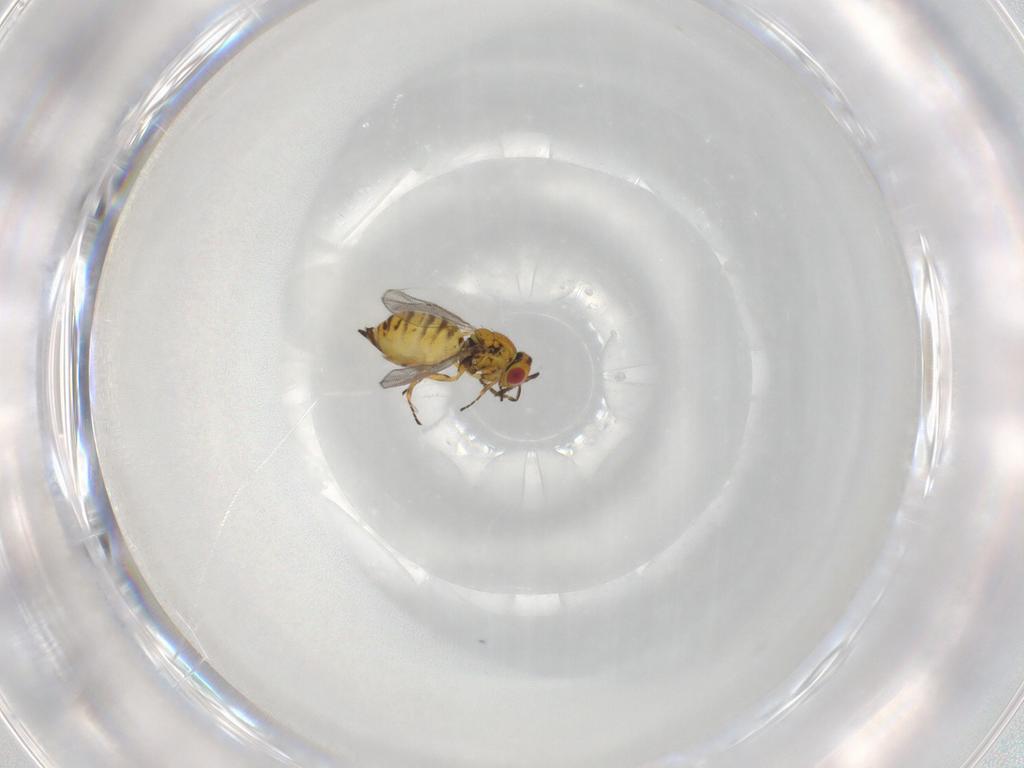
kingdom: Animalia
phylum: Arthropoda
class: Insecta
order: Hymenoptera
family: Eulophidae
